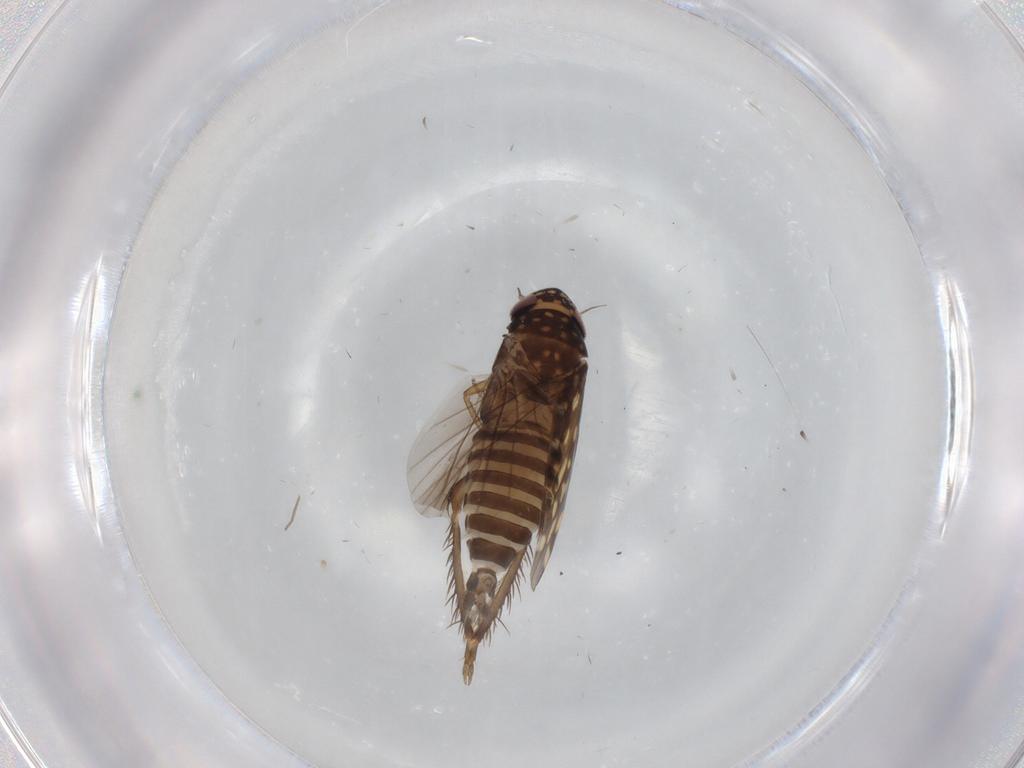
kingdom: Animalia
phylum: Arthropoda
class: Insecta
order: Hemiptera
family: Cicadellidae
